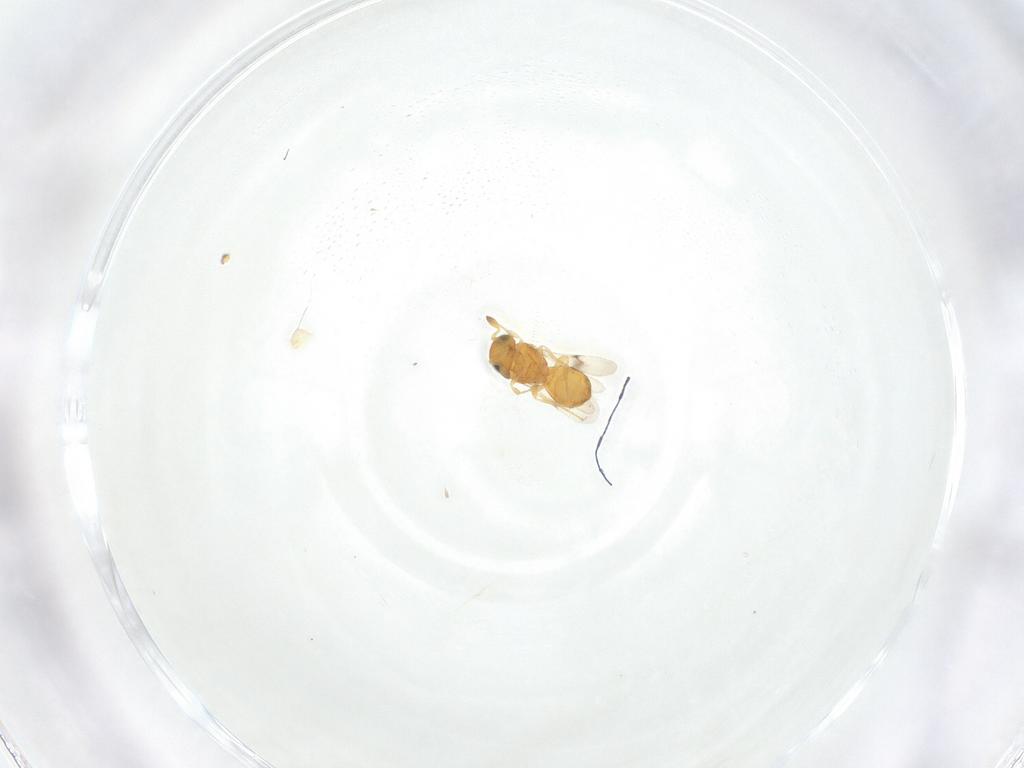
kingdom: Animalia
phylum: Arthropoda
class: Insecta
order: Hymenoptera
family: Scelionidae
